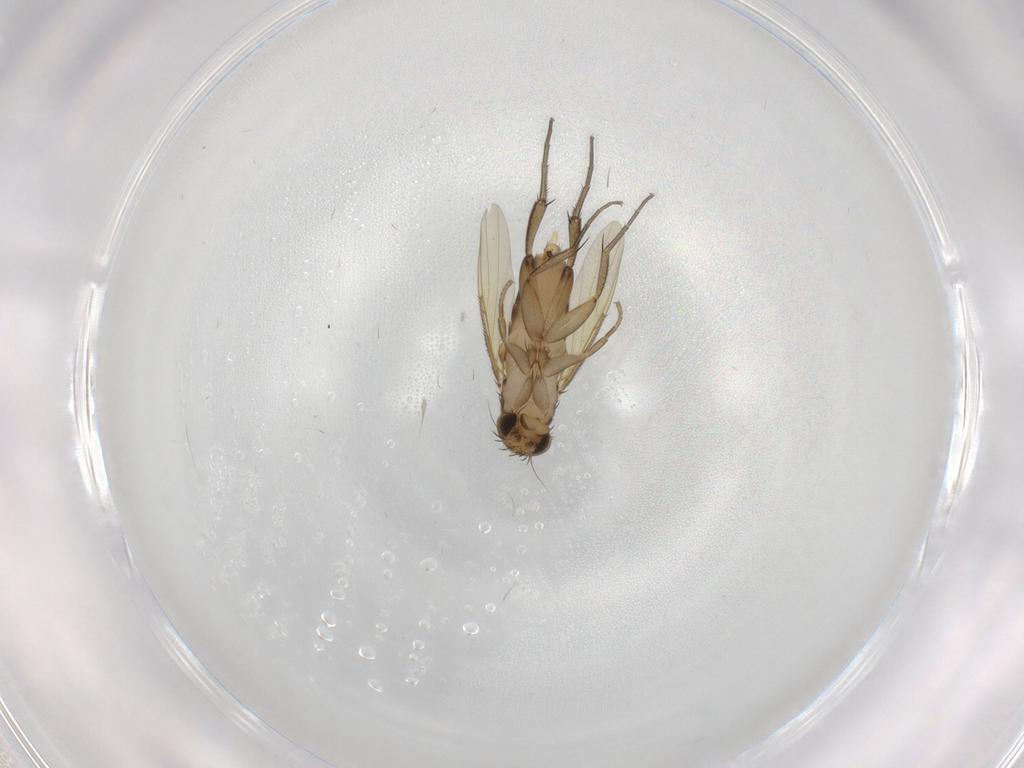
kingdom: Animalia
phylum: Arthropoda
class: Insecta
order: Diptera
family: Phoridae
